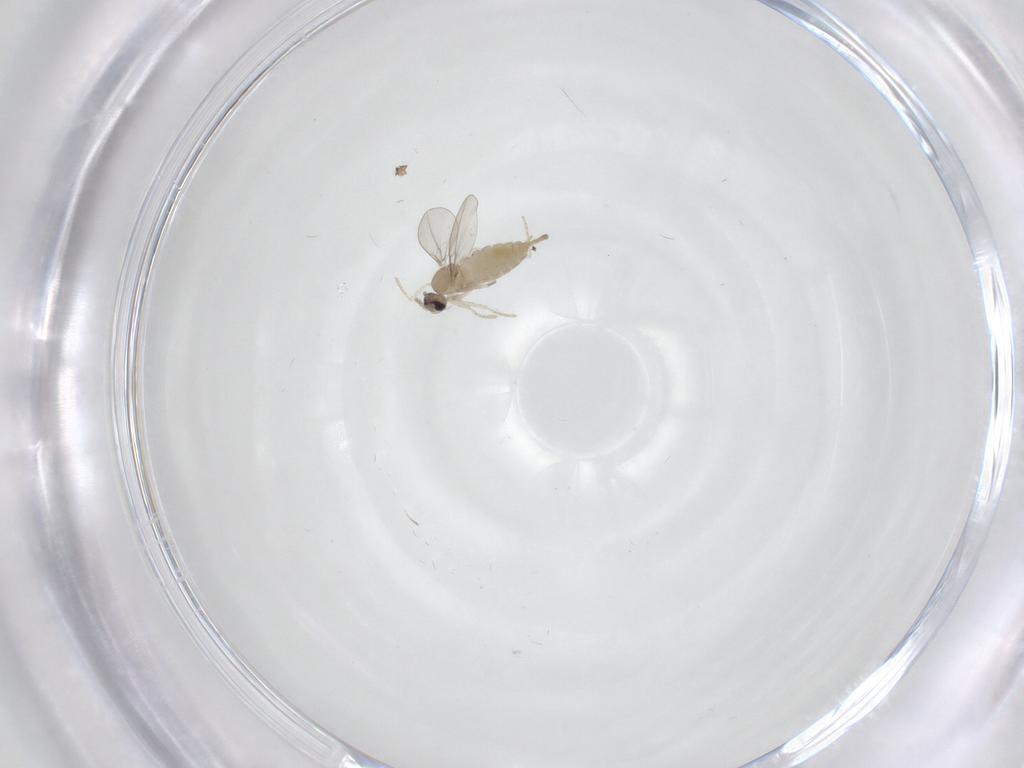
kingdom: Animalia
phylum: Arthropoda
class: Insecta
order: Diptera
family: Cecidomyiidae
